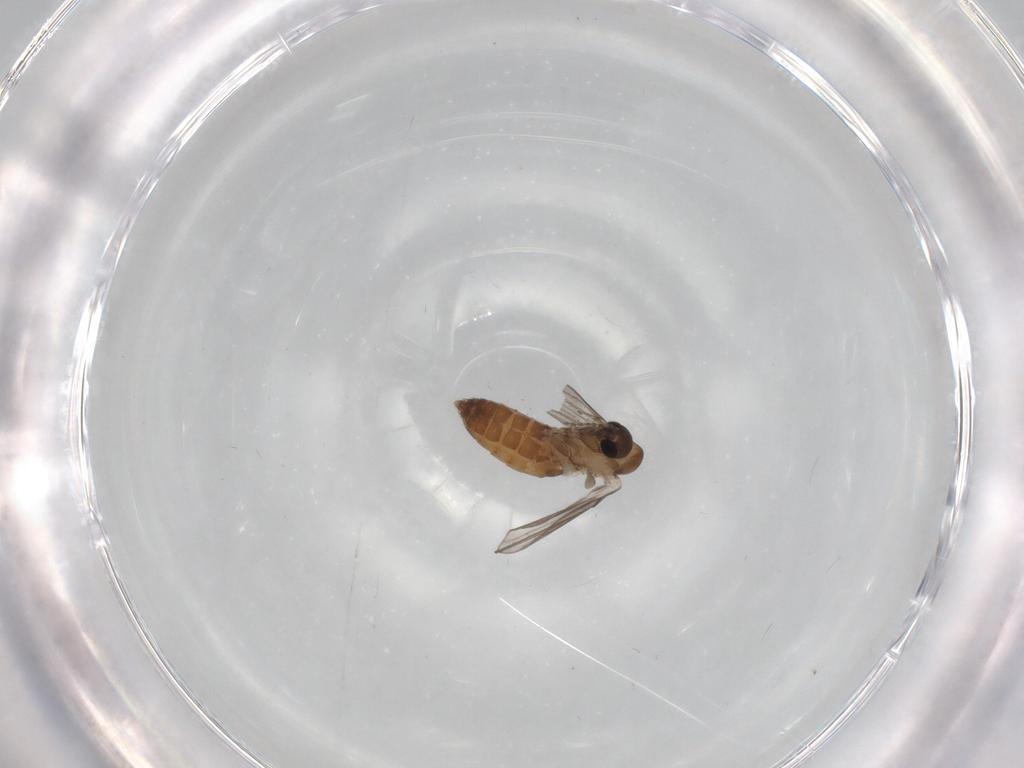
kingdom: Animalia
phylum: Arthropoda
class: Insecta
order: Diptera
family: Psychodidae
